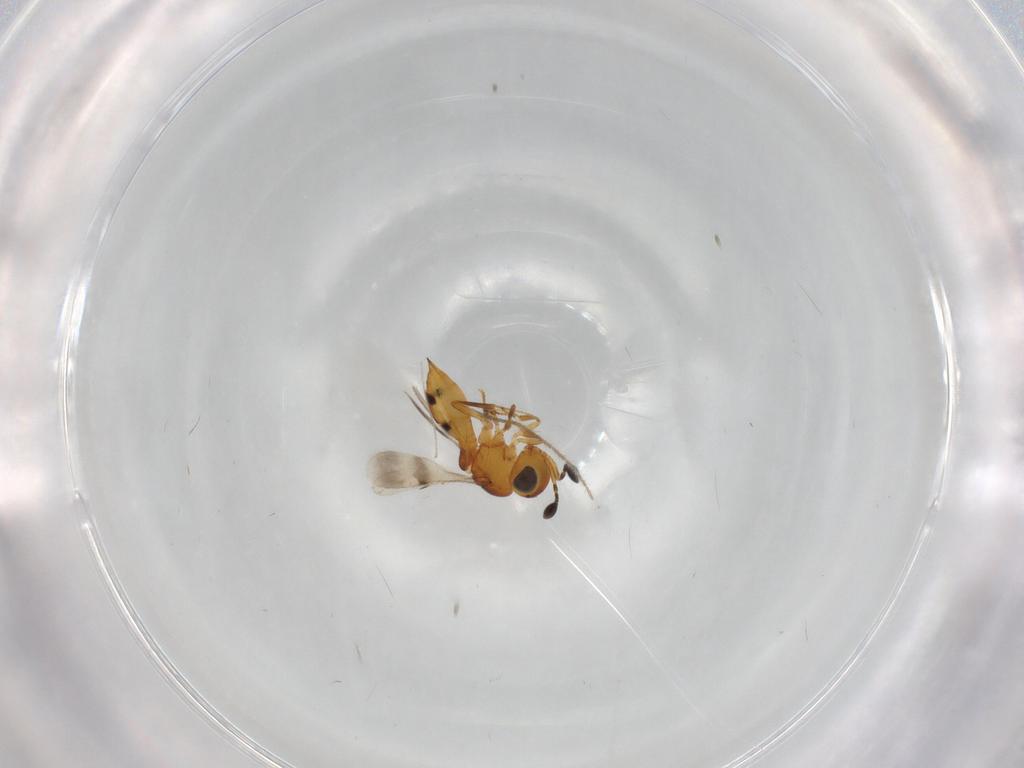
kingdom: Animalia
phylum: Arthropoda
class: Insecta
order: Hymenoptera
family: Scelionidae
